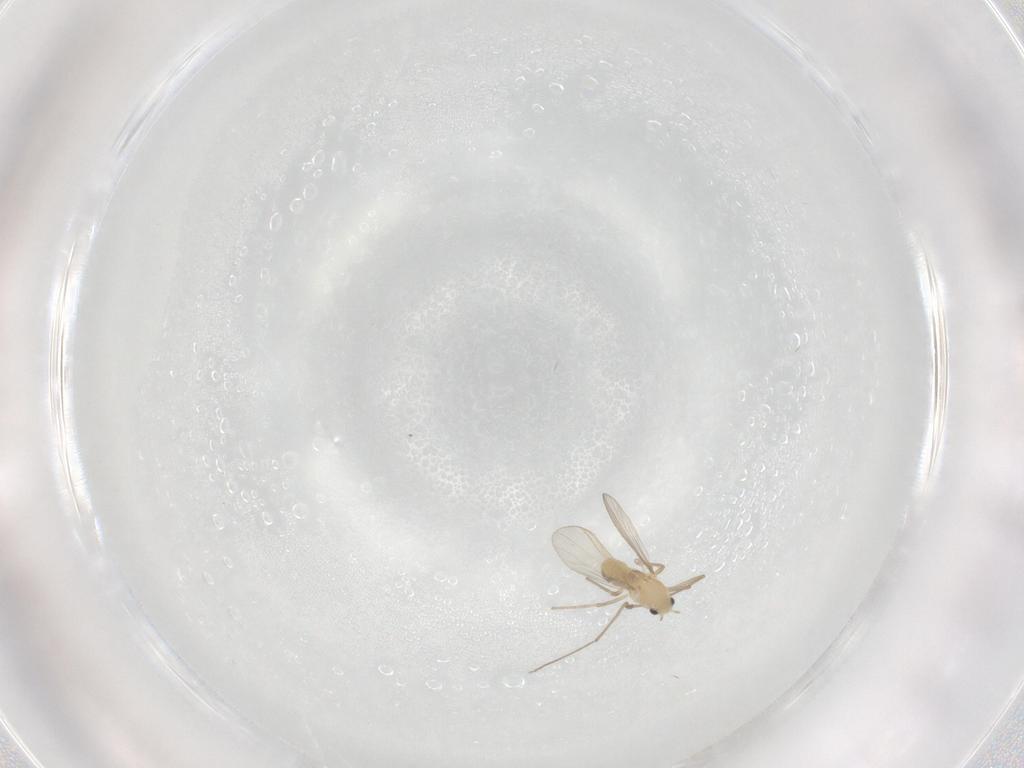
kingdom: Animalia
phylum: Arthropoda
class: Insecta
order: Diptera
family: Chironomidae
